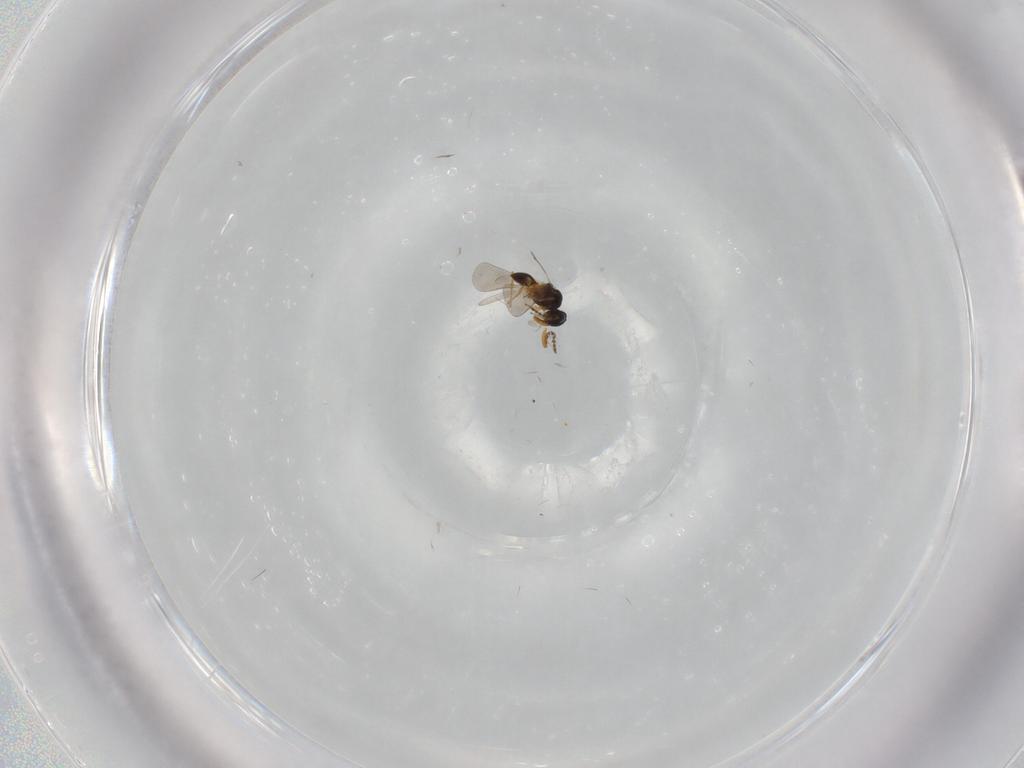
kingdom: Animalia
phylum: Arthropoda
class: Insecta
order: Hymenoptera
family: Platygastridae
